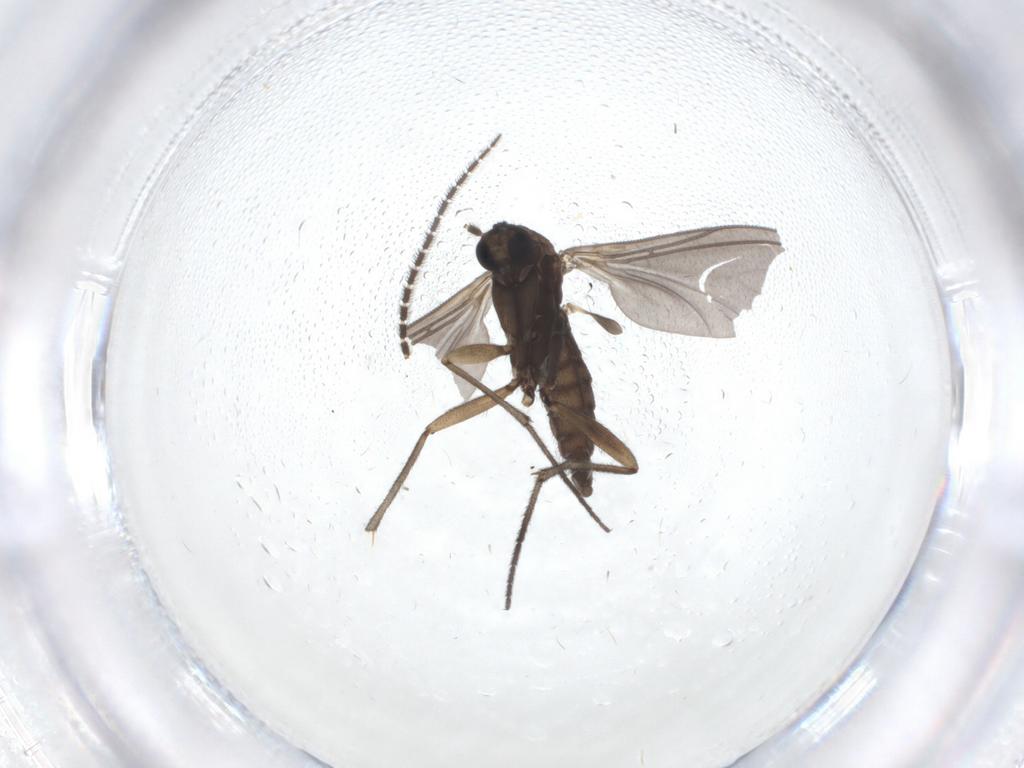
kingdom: Animalia
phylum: Arthropoda
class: Insecta
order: Diptera
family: Sciaridae
